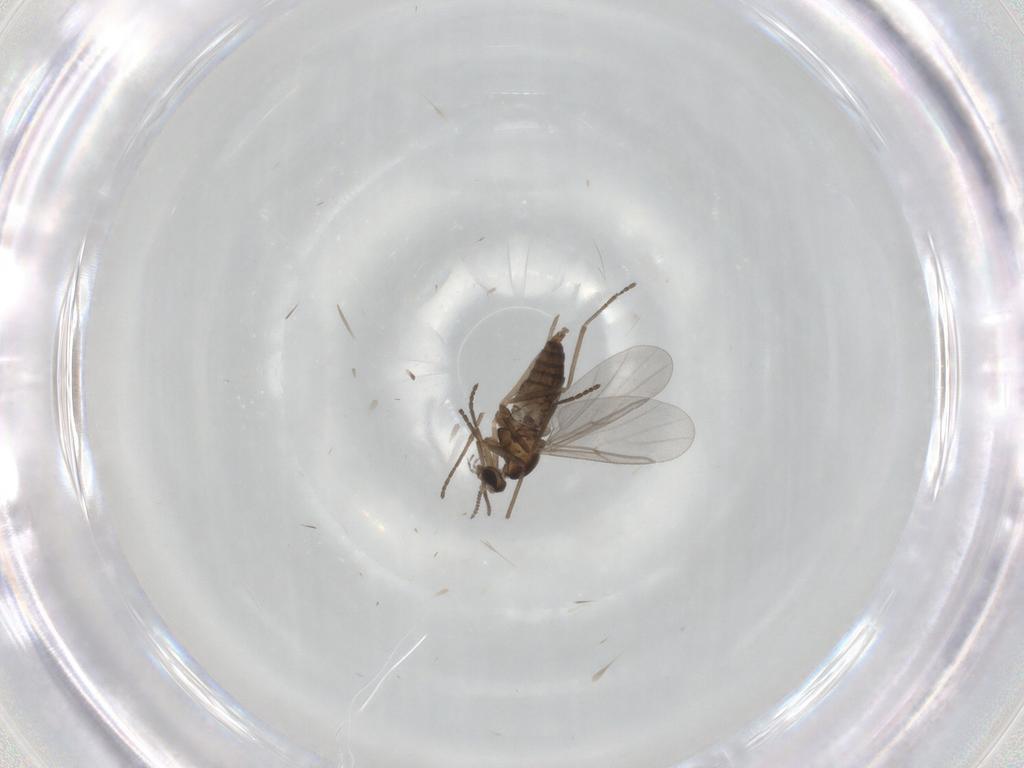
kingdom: Animalia
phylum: Arthropoda
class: Insecta
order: Diptera
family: Cecidomyiidae
